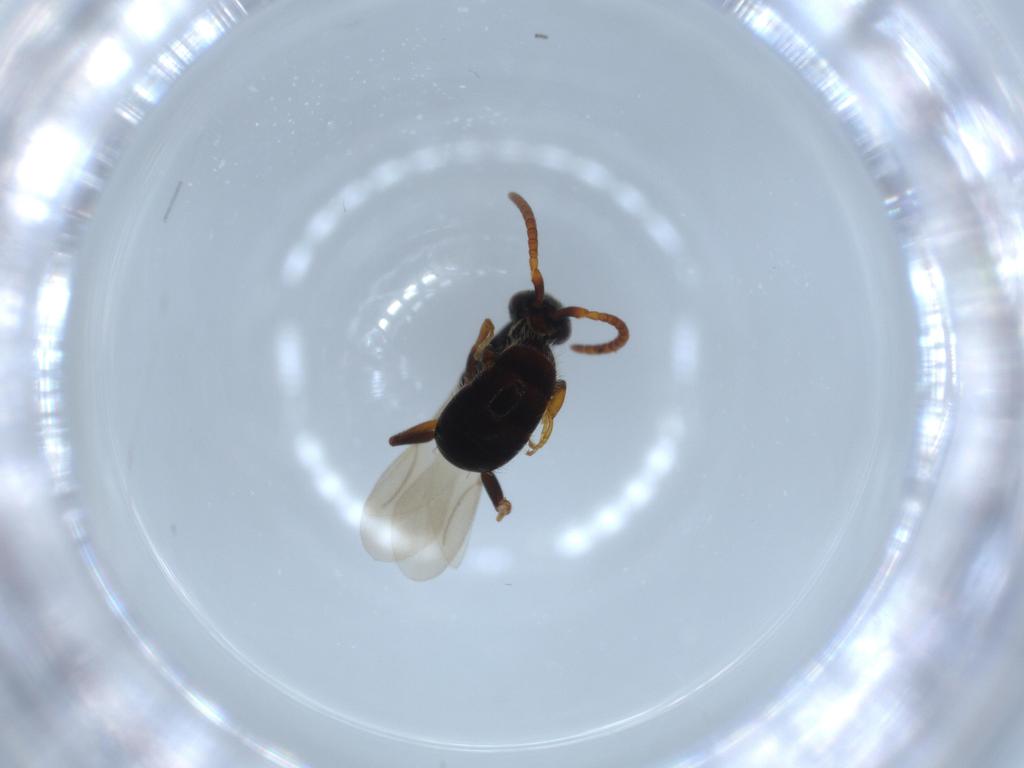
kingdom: Animalia
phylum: Arthropoda
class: Insecta
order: Hymenoptera
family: Bethylidae
